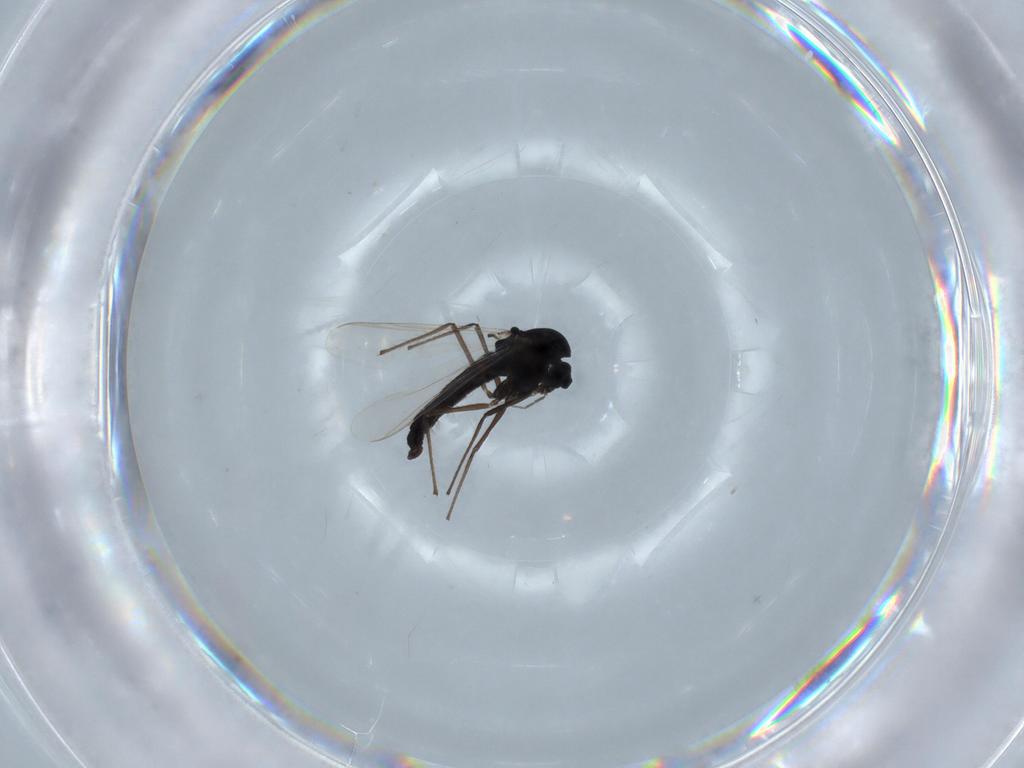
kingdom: Animalia
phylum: Arthropoda
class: Insecta
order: Diptera
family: Chironomidae
